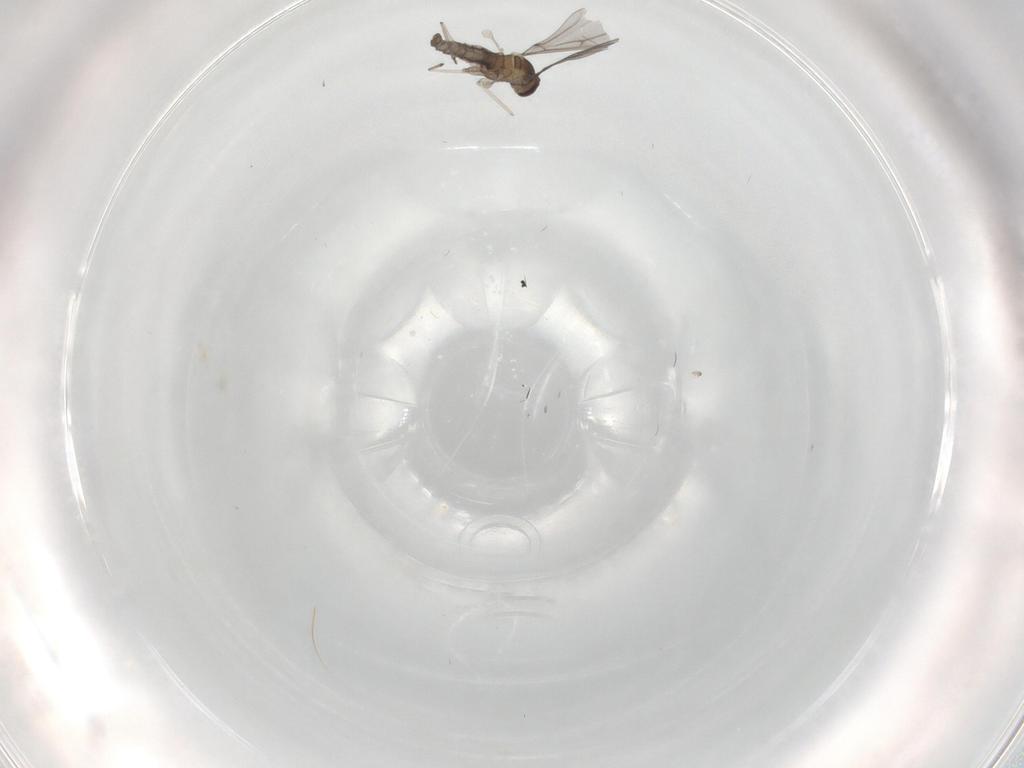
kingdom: Animalia
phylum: Arthropoda
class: Insecta
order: Diptera
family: Cecidomyiidae
